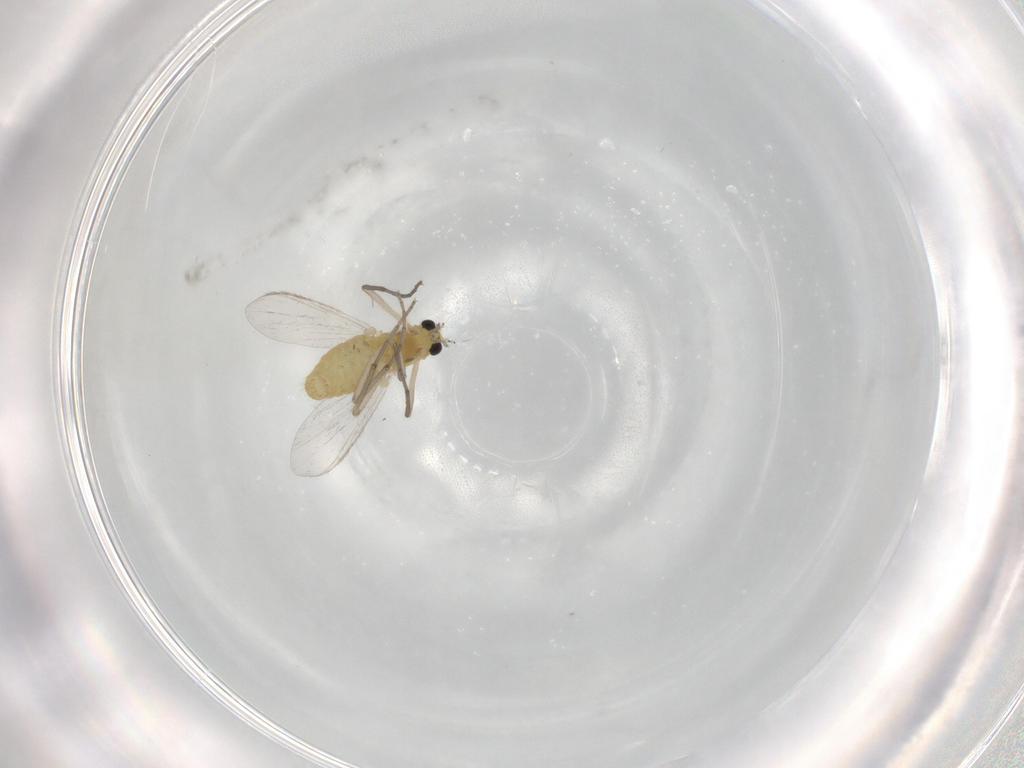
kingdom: Animalia
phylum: Arthropoda
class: Insecta
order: Diptera
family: Chironomidae
